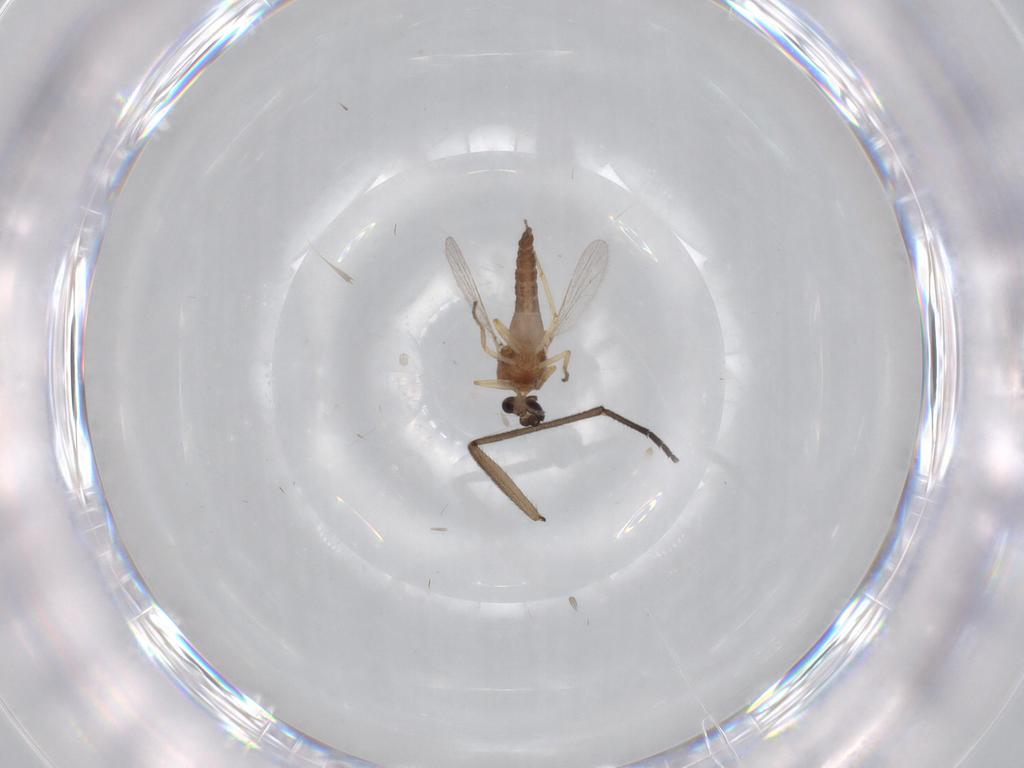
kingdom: Animalia
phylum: Arthropoda
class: Insecta
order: Diptera
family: Sciaridae
